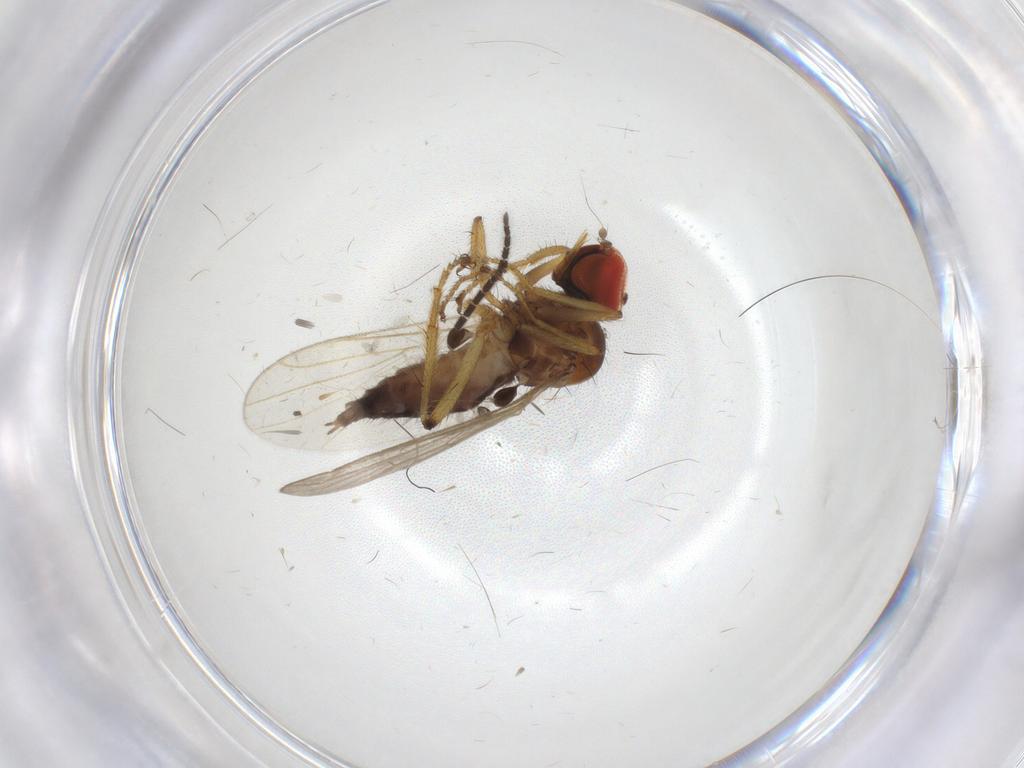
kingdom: Animalia
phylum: Arthropoda
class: Insecta
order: Diptera
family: Hybotidae
